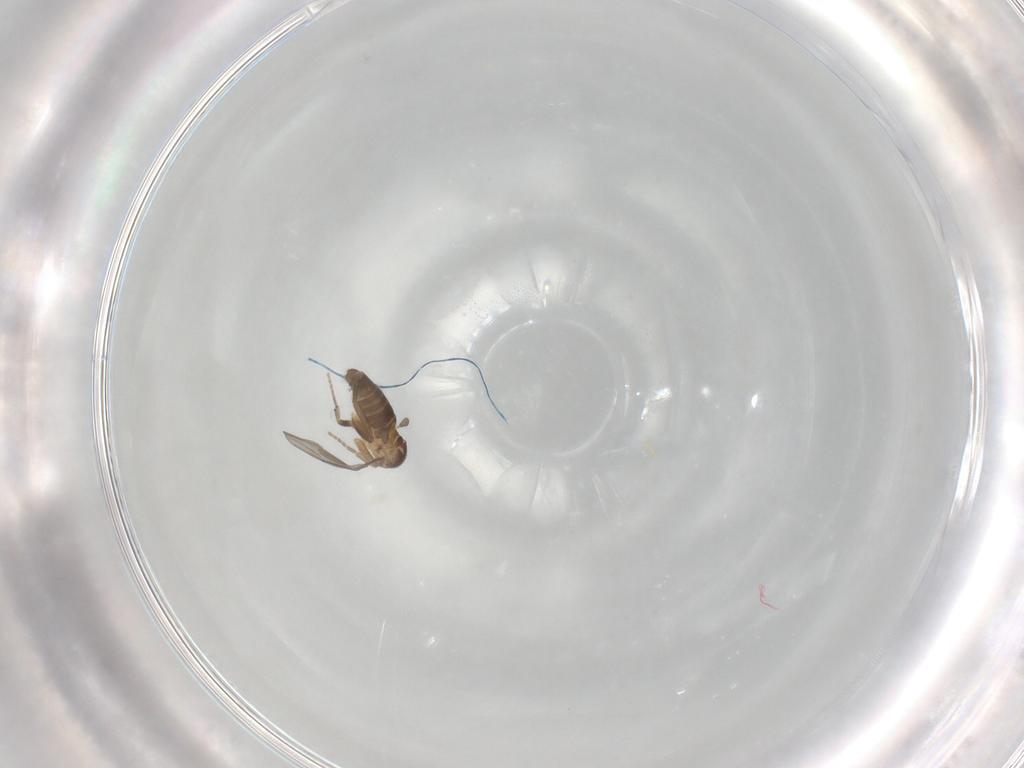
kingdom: Animalia
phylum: Arthropoda
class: Insecta
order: Diptera
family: Phoridae
